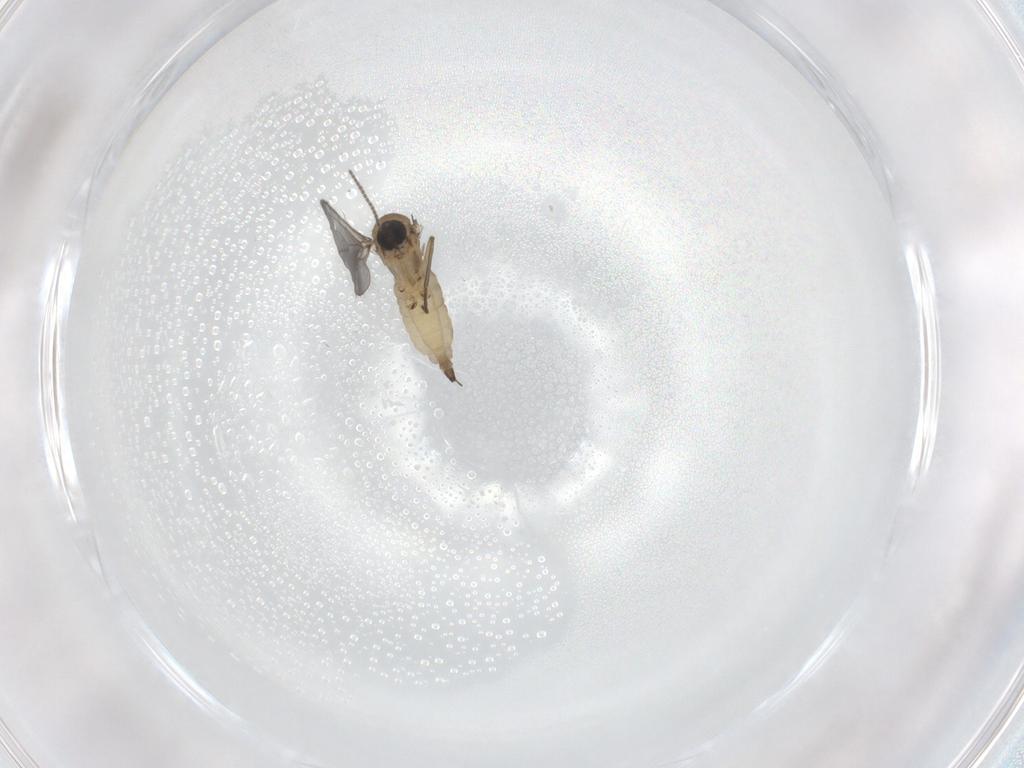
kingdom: Animalia
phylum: Arthropoda
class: Insecta
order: Diptera
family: Sciaridae
